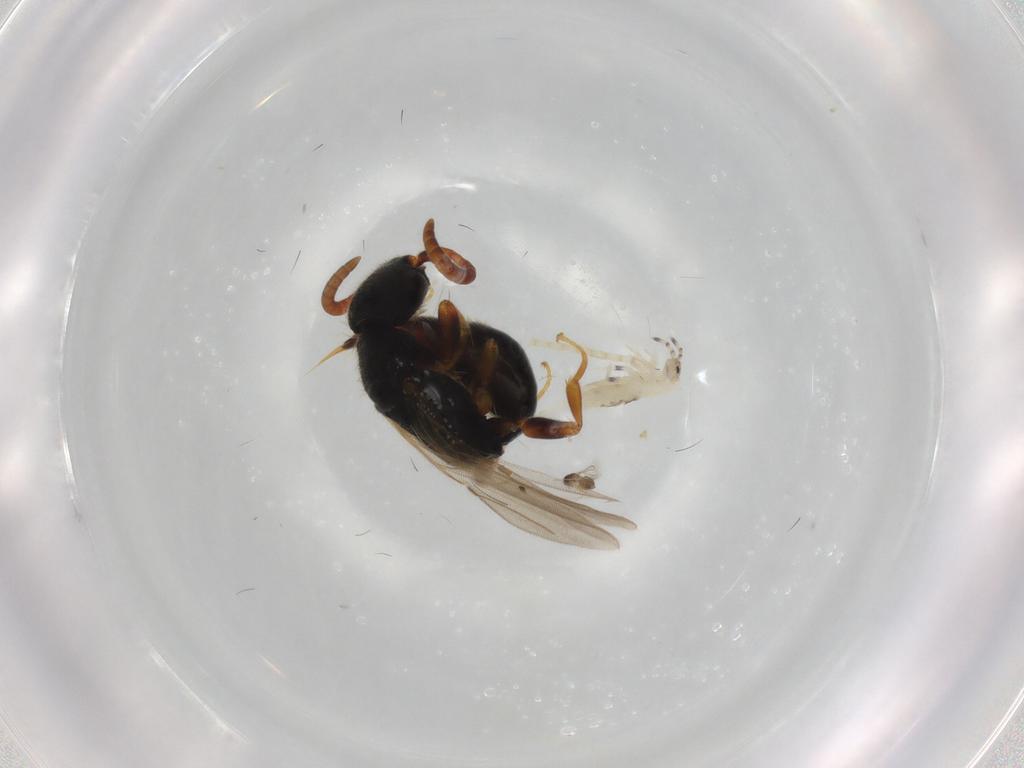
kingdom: Animalia
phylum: Arthropoda
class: Insecta
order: Hymenoptera
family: Bethylidae
